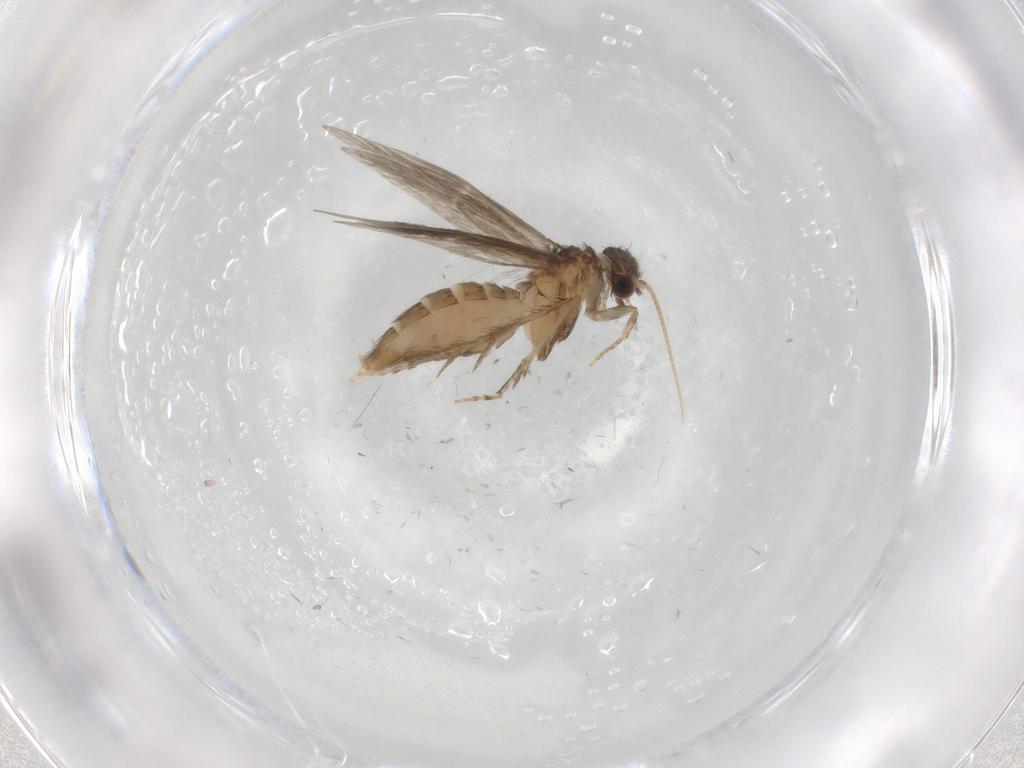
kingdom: Animalia
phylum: Arthropoda
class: Insecta
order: Trichoptera
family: Hydroptilidae
